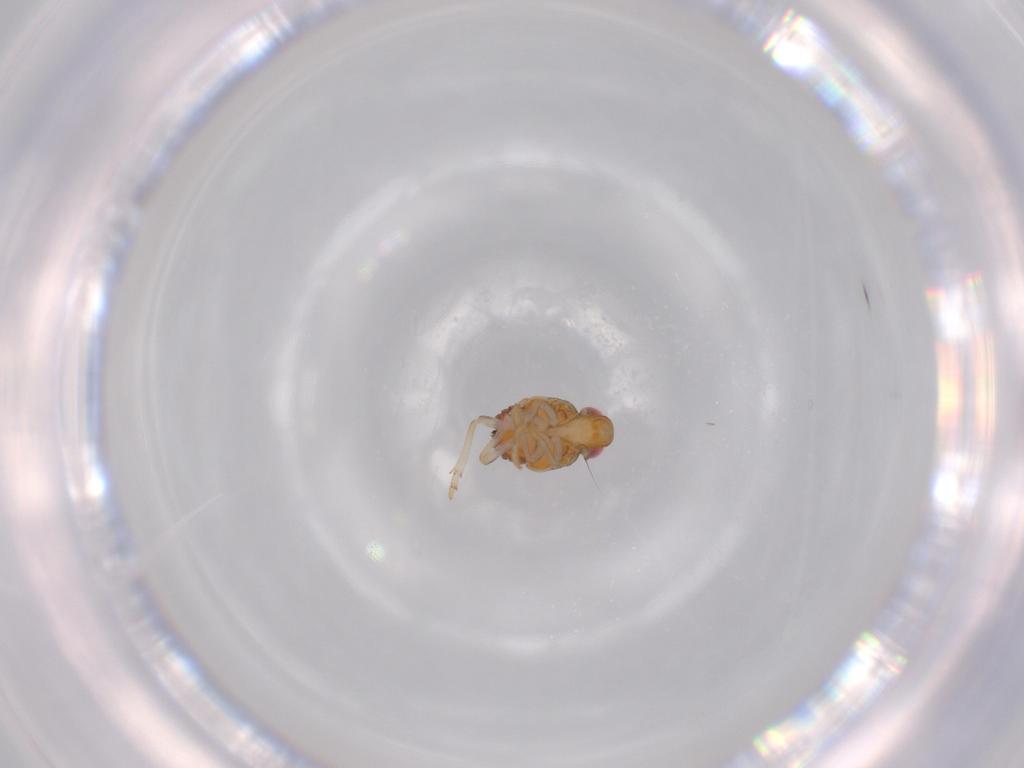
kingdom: Animalia
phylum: Arthropoda
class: Insecta
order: Hemiptera
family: Issidae
